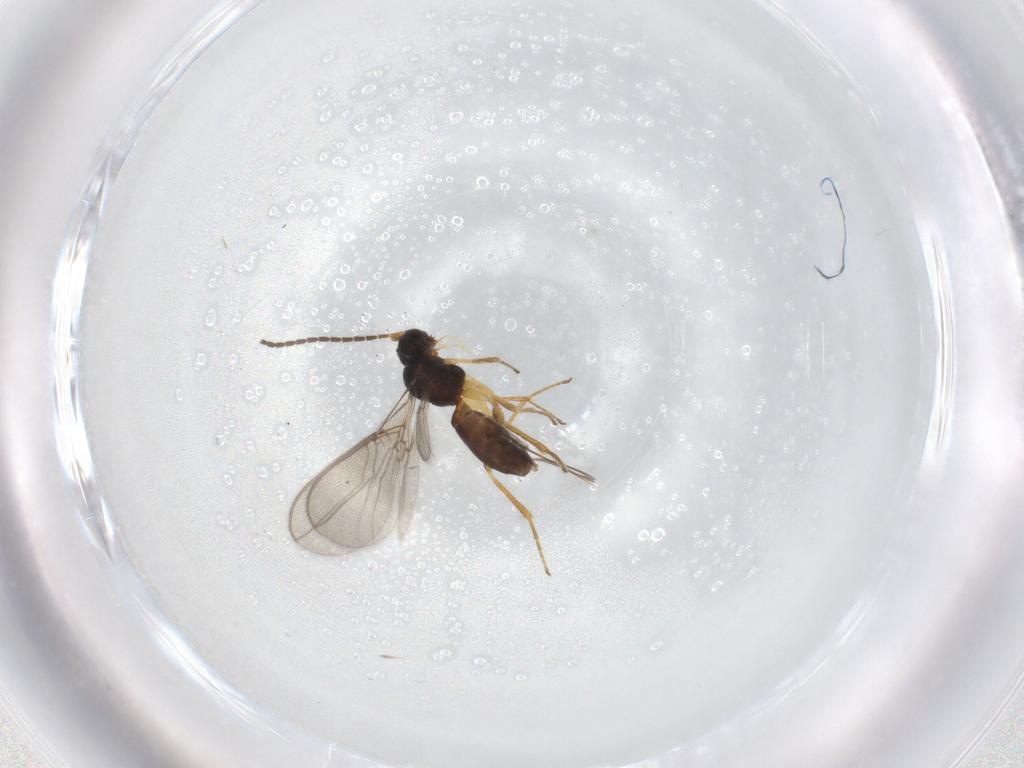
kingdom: Animalia
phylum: Arthropoda
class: Insecta
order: Hymenoptera
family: Braconidae
